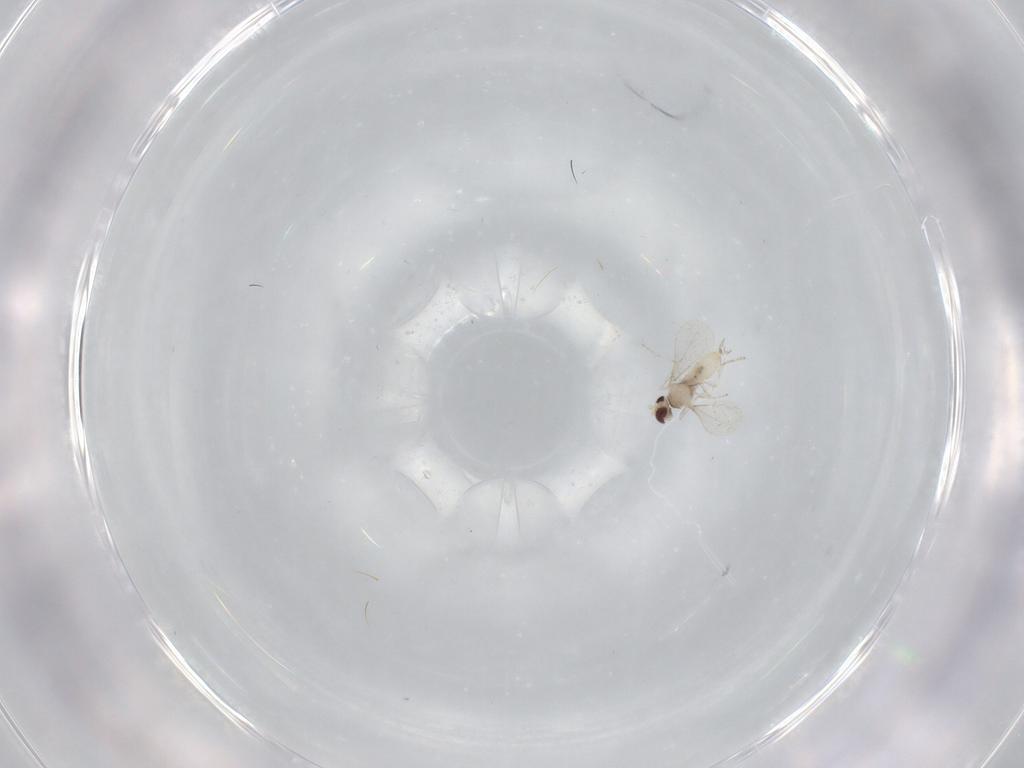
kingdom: Animalia
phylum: Arthropoda
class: Insecta
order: Diptera
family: Cecidomyiidae
